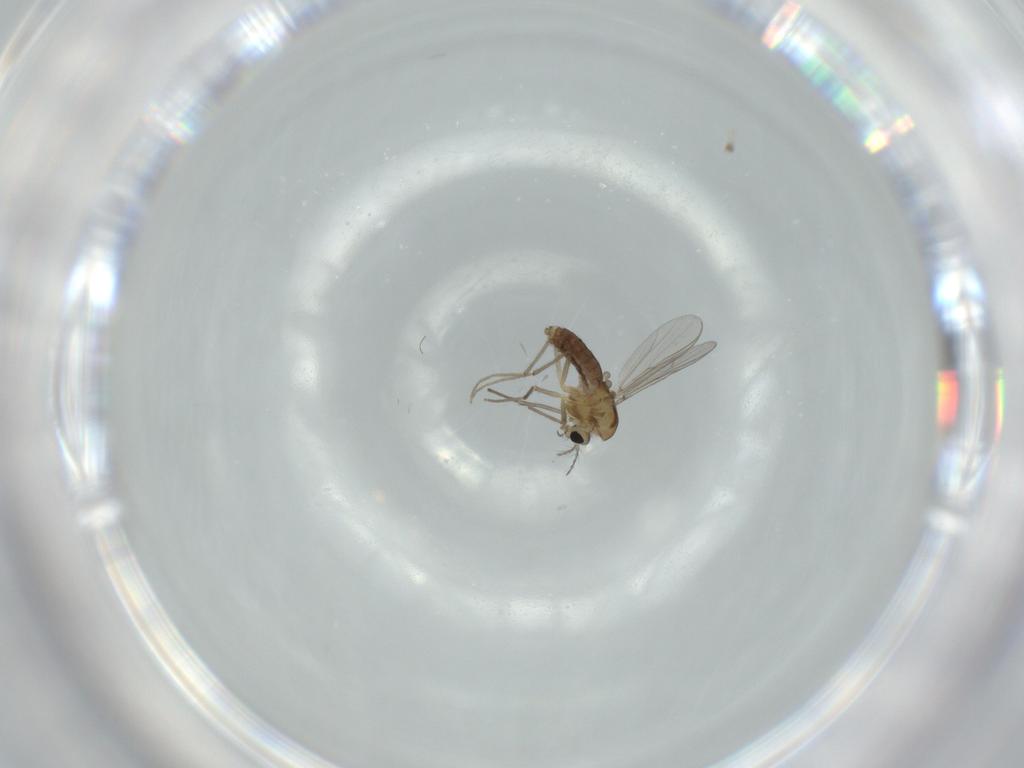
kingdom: Animalia
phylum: Arthropoda
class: Insecta
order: Diptera
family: Chironomidae
